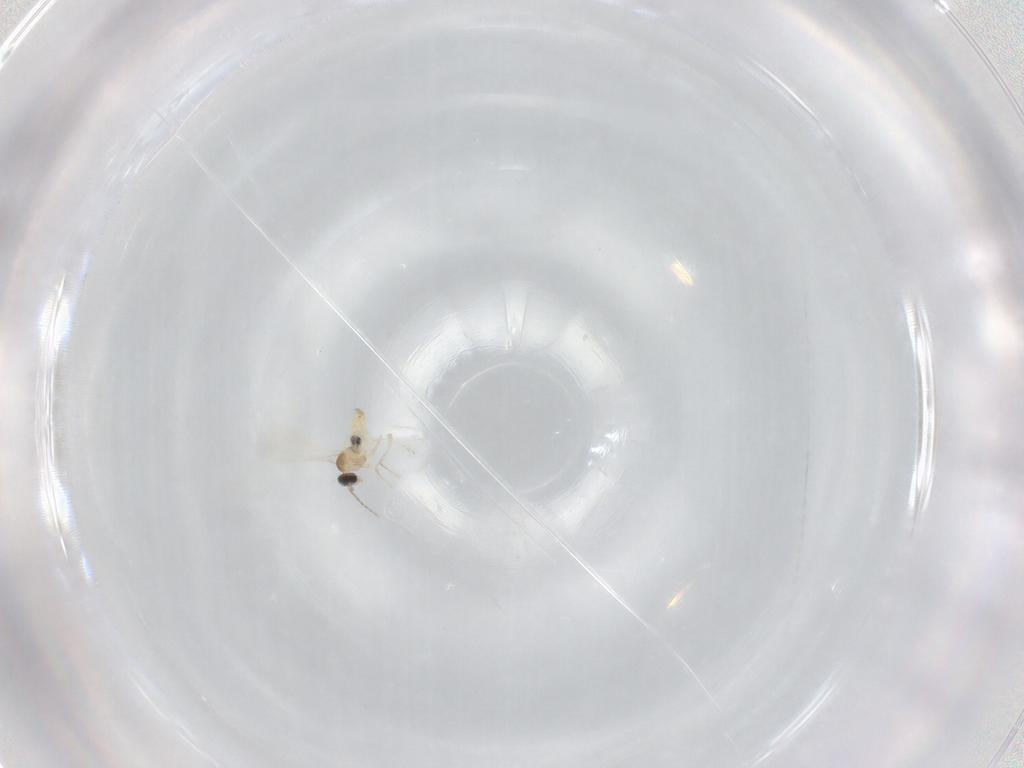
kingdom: Animalia
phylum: Arthropoda
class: Insecta
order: Diptera
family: Cecidomyiidae
